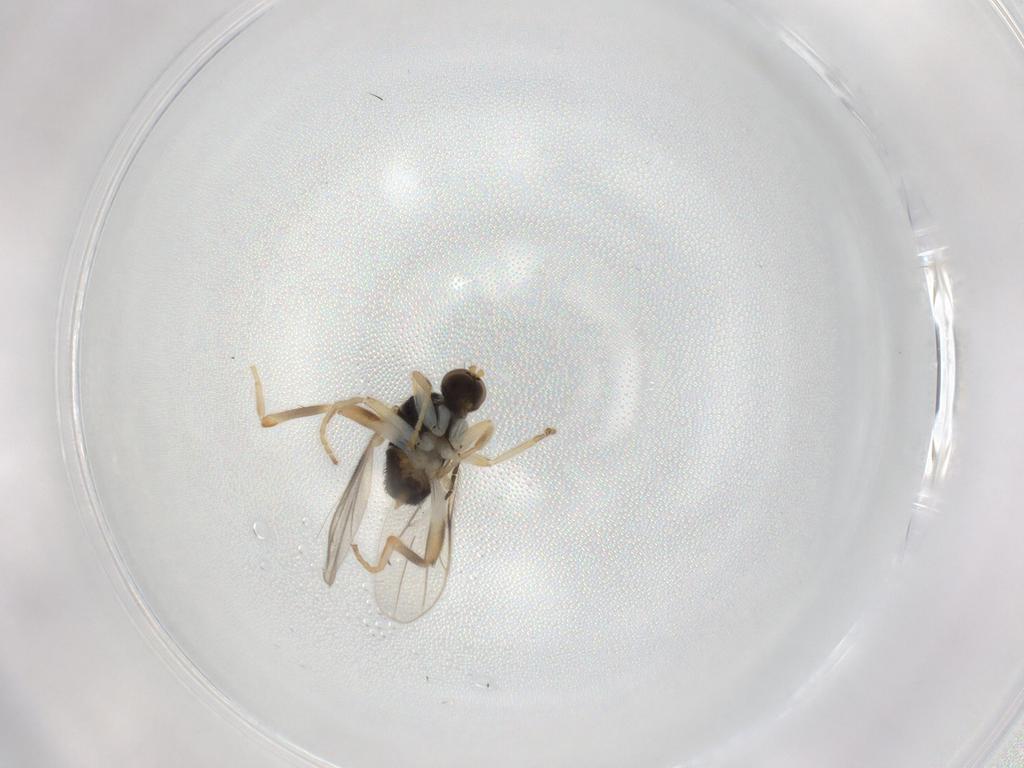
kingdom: Animalia
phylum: Arthropoda
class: Insecta
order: Diptera
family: Hybotidae
